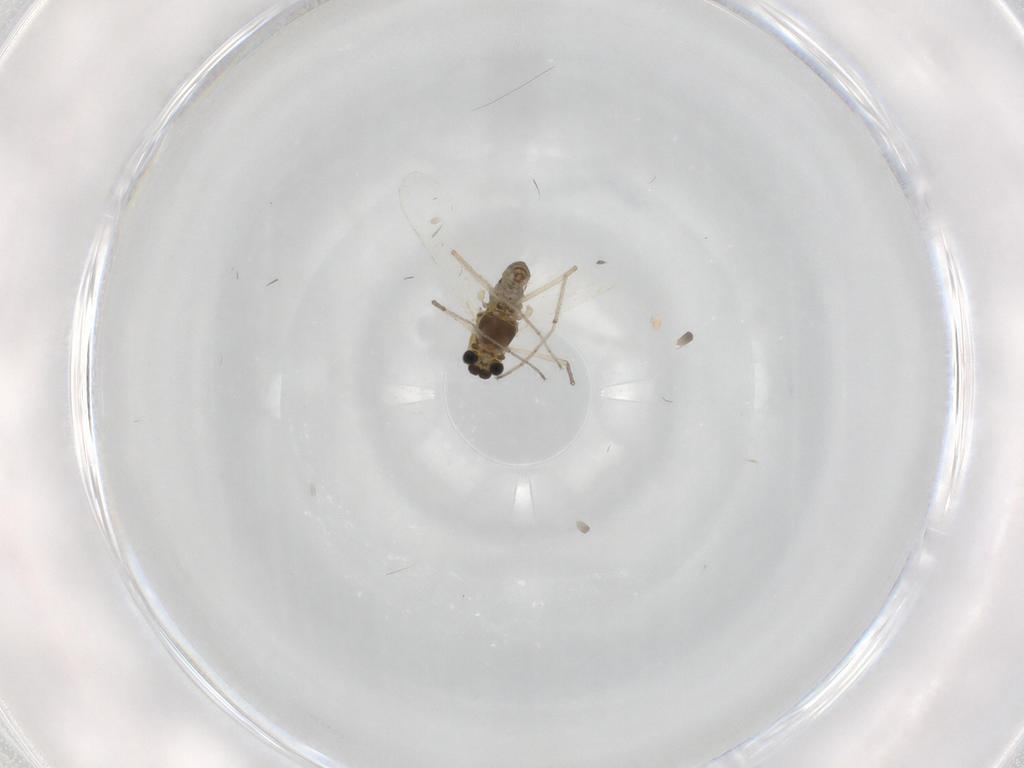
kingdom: Animalia
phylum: Arthropoda
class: Insecta
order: Diptera
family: Chironomidae
